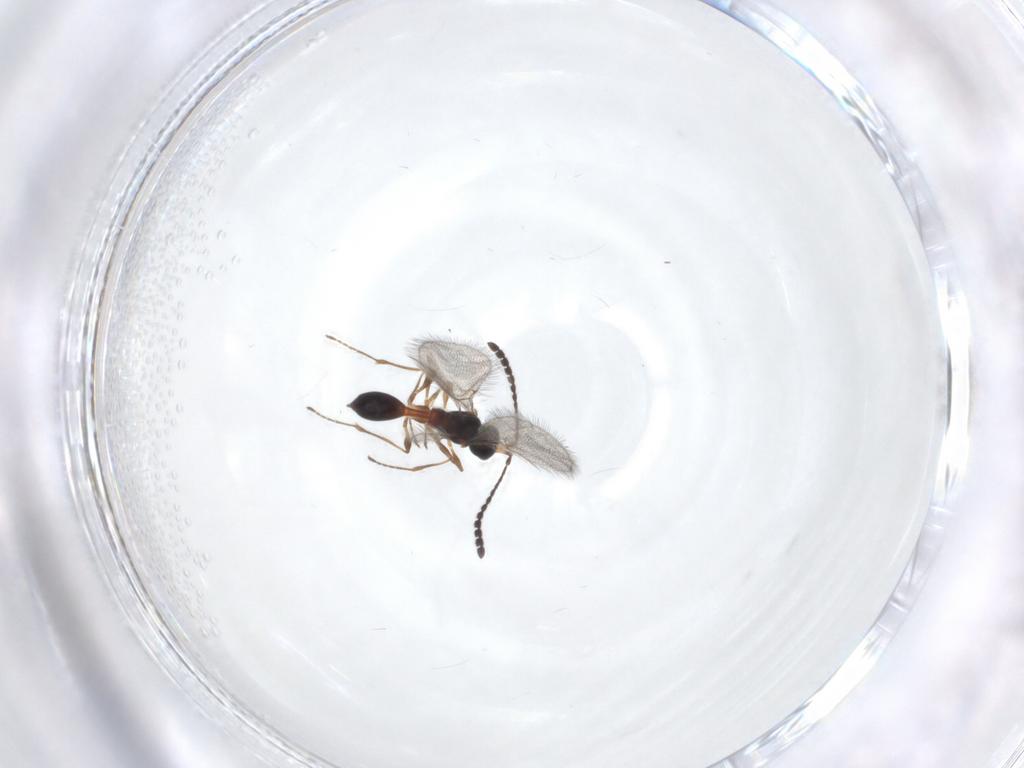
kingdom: Animalia
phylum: Arthropoda
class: Insecta
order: Hymenoptera
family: Diapriidae
